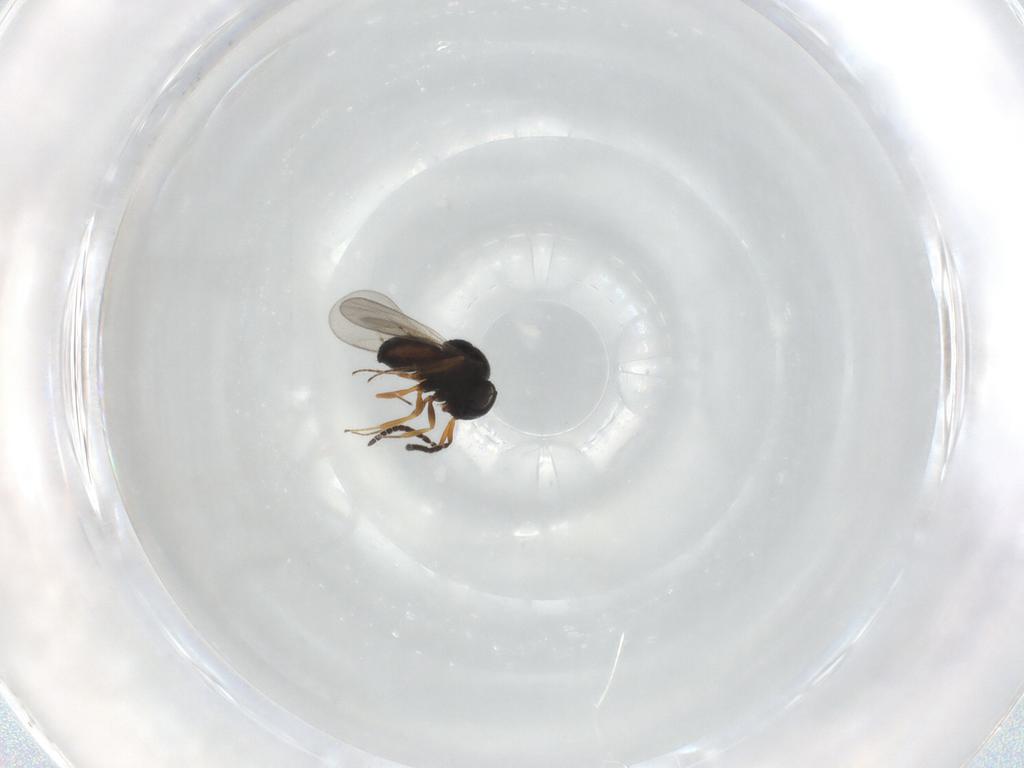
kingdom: Animalia
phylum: Arthropoda
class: Insecta
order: Hymenoptera
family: Scelionidae
